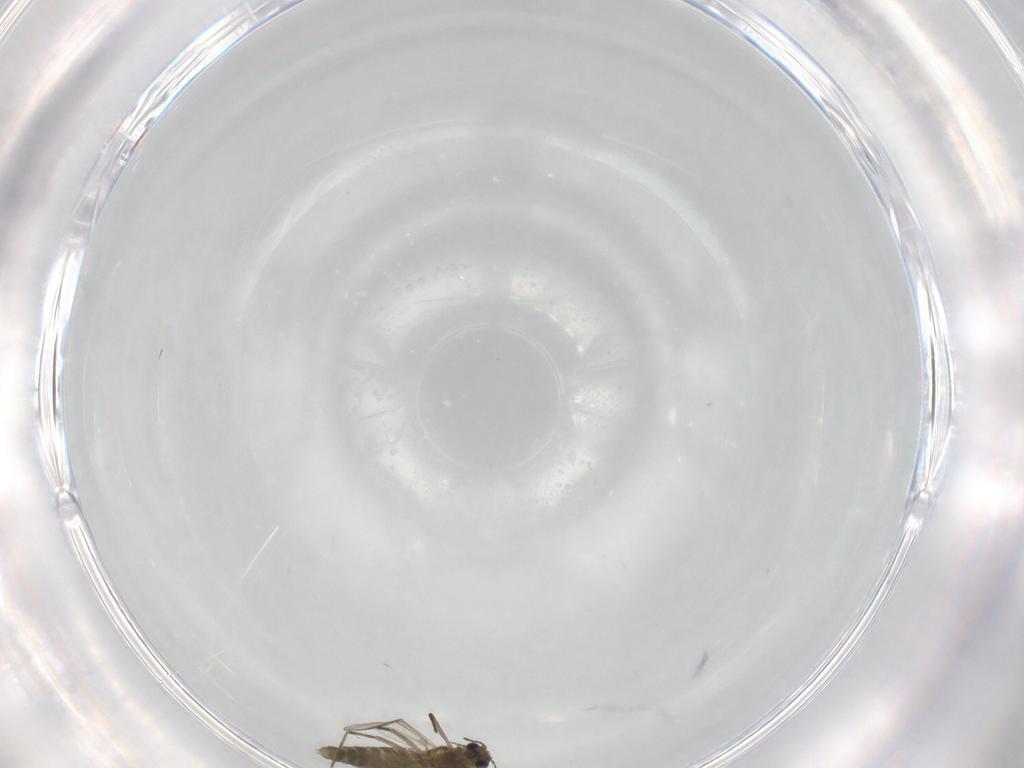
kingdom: Animalia
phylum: Arthropoda
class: Insecta
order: Diptera
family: Chironomidae
